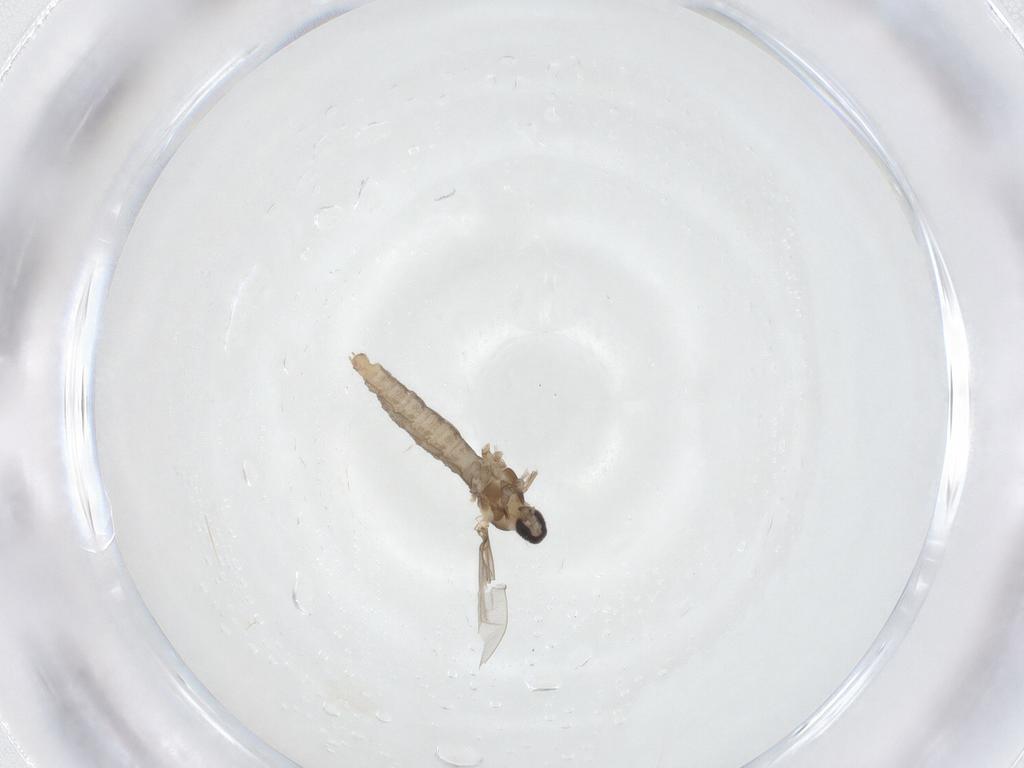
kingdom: Animalia
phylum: Arthropoda
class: Insecta
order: Diptera
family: Cecidomyiidae
